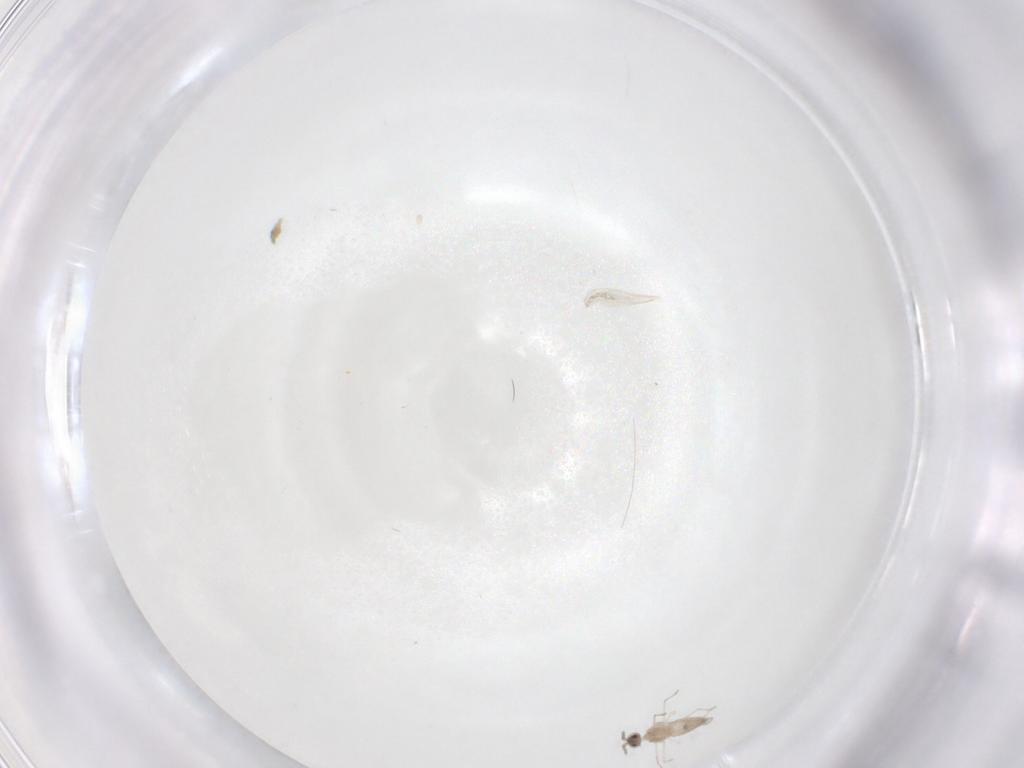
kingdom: Animalia
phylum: Arthropoda
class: Insecta
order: Diptera
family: Cecidomyiidae
